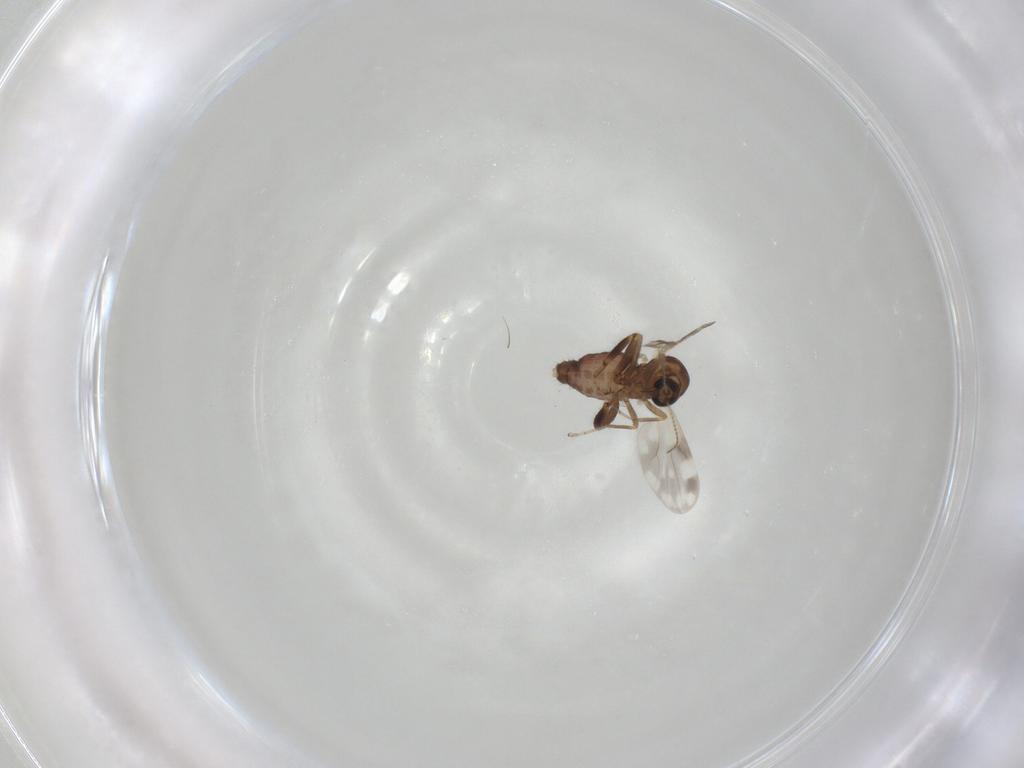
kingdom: Animalia
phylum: Arthropoda
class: Insecta
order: Diptera
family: Ceratopogonidae
